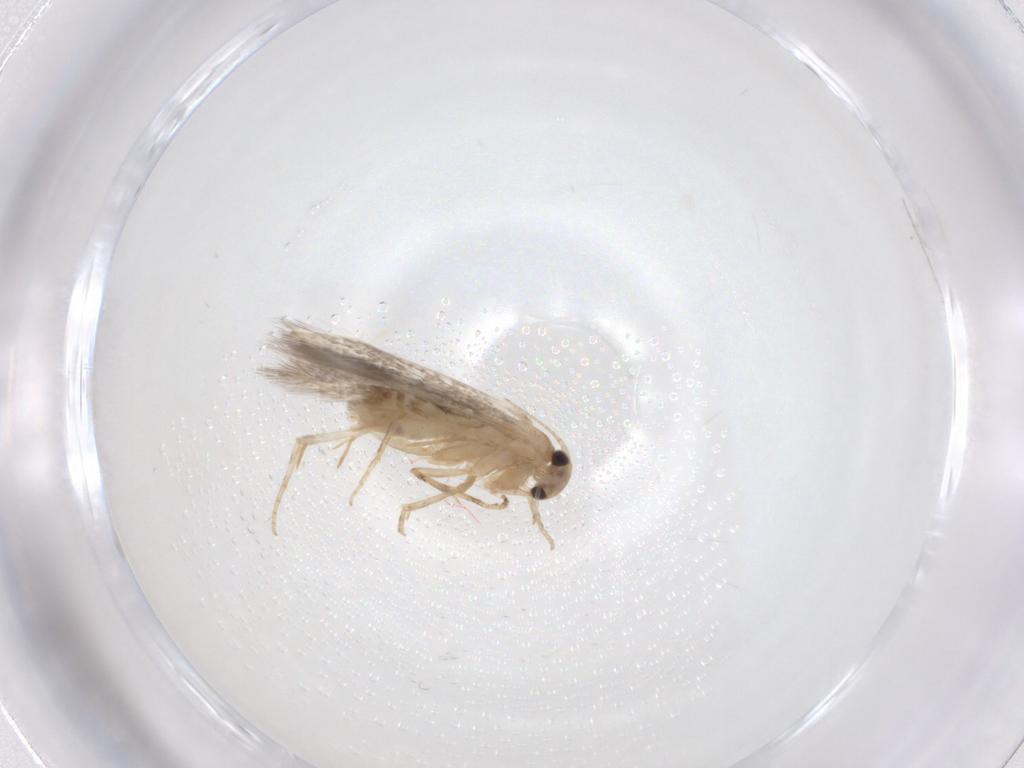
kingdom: Animalia
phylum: Arthropoda
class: Insecta
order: Lepidoptera
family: Elachistidae
